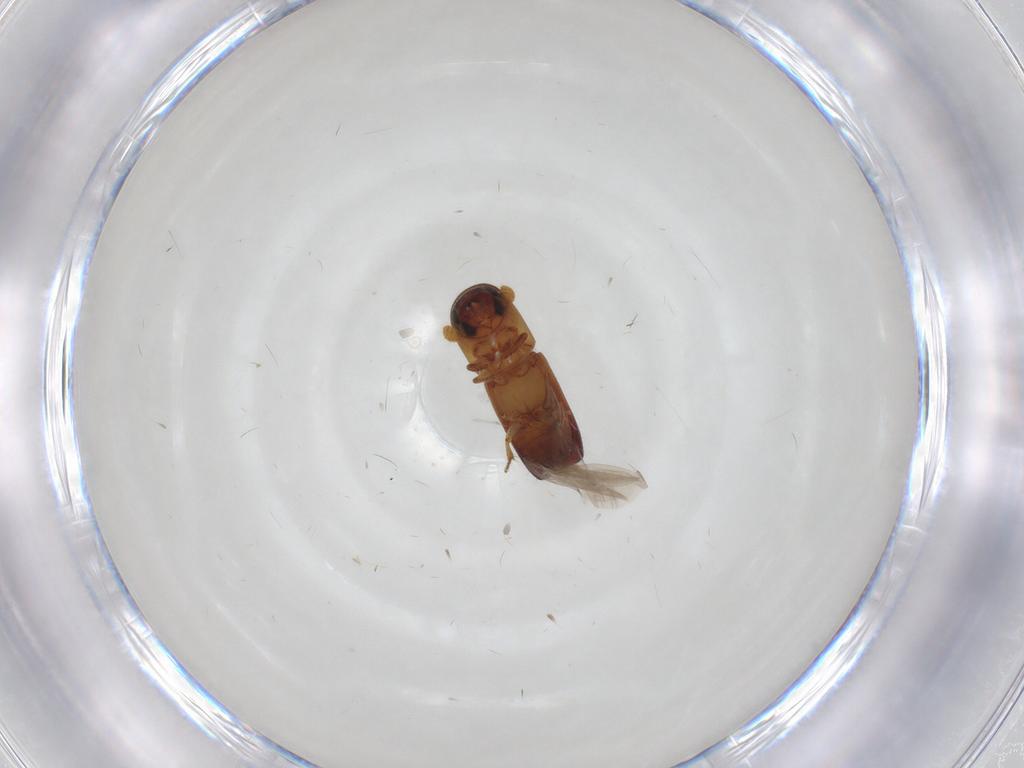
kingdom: Animalia
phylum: Arthropoda
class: Insecta
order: Coleoptera
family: Curculionidae
